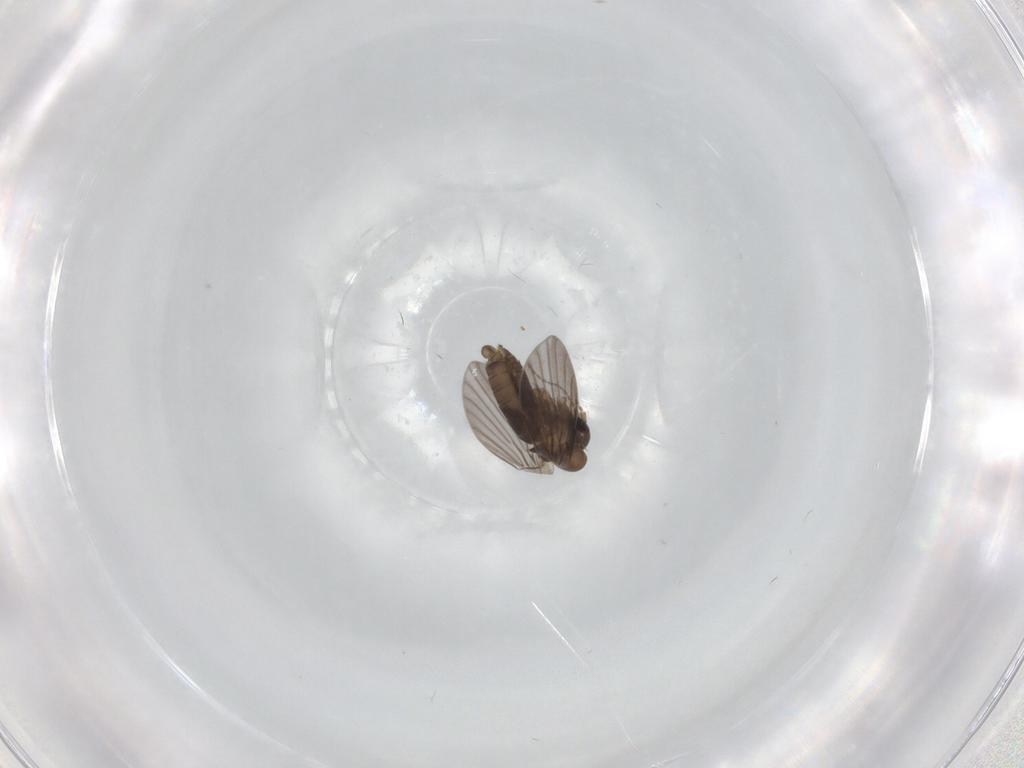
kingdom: Animalia
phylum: Arthropoda
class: Insecta
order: Diptera
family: Sciaridae
